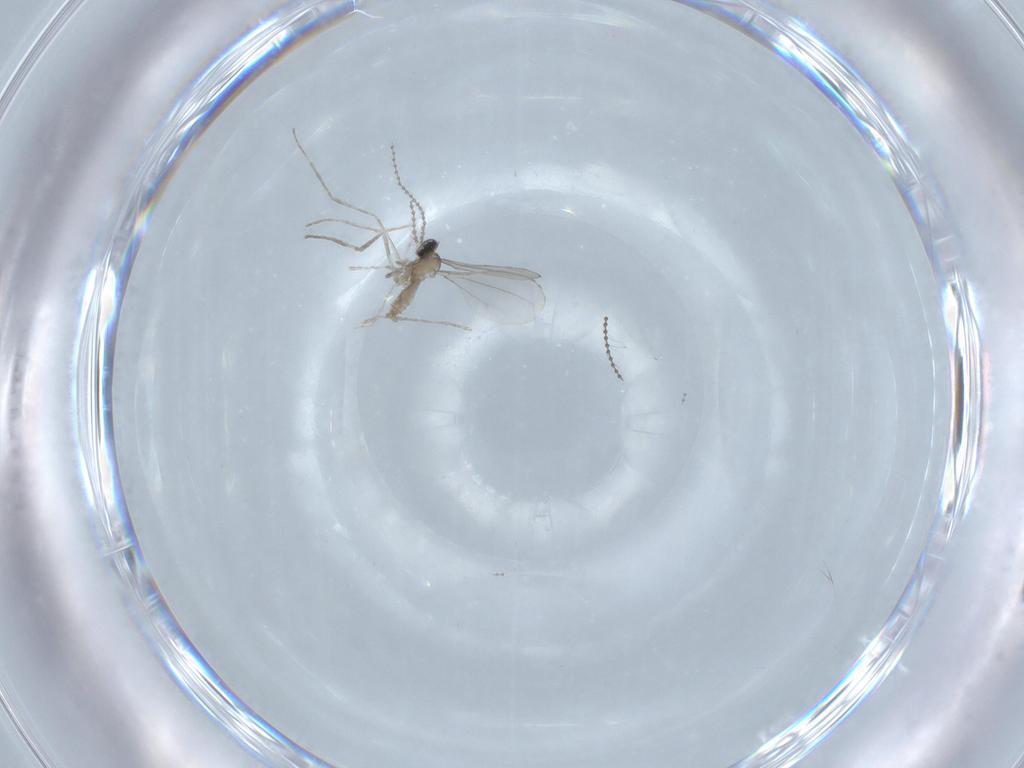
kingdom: Animalia
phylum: Arthropoda
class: Insecta
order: Diptera
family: Cecidomyiidae
